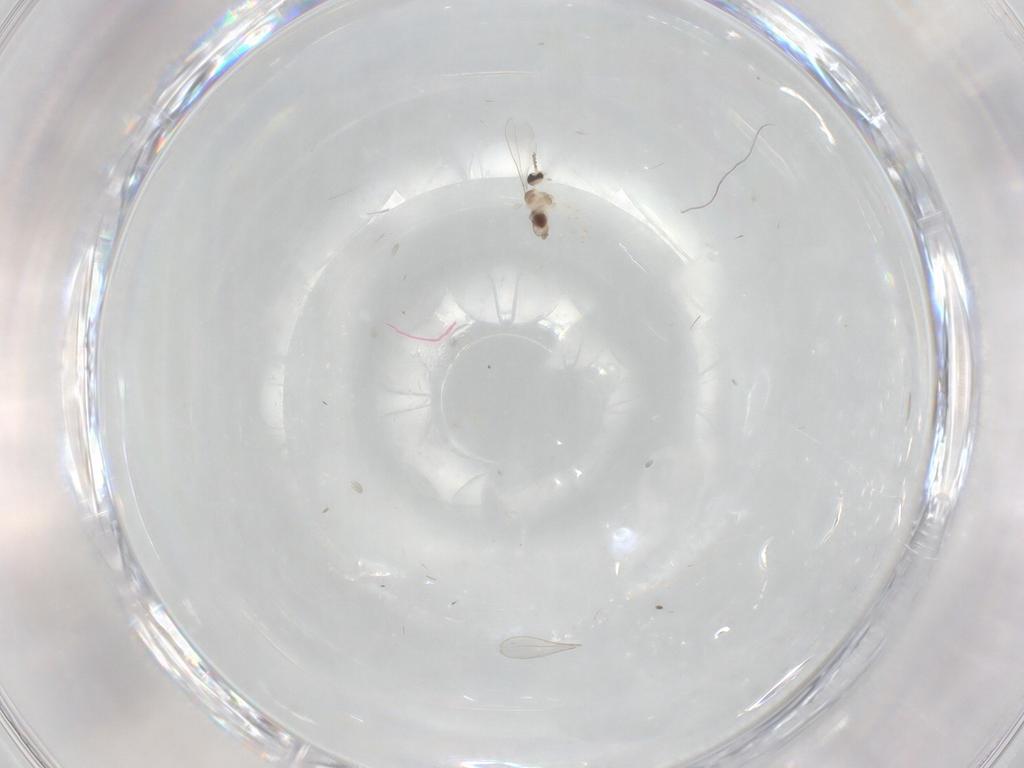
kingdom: Animalia
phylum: Arthropoda
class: Insecta
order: Diptera
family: Cecidomyiidae
